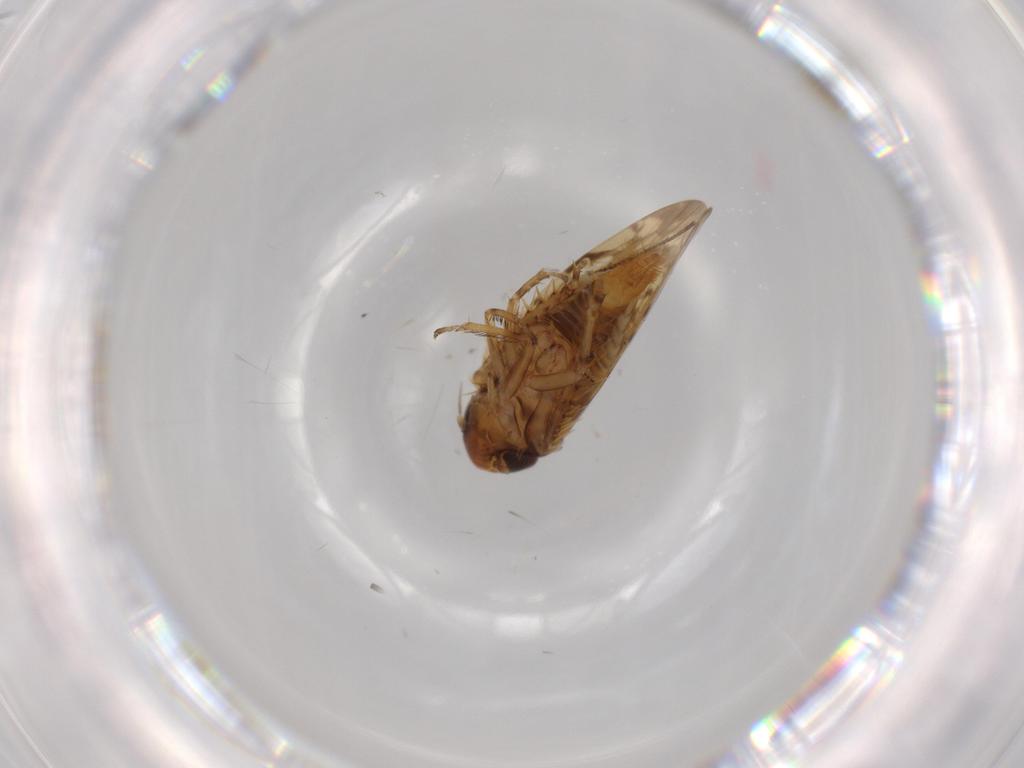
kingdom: Animalia
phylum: Arthropoda
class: Insecta
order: Hemiptera
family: Cicadellidae
